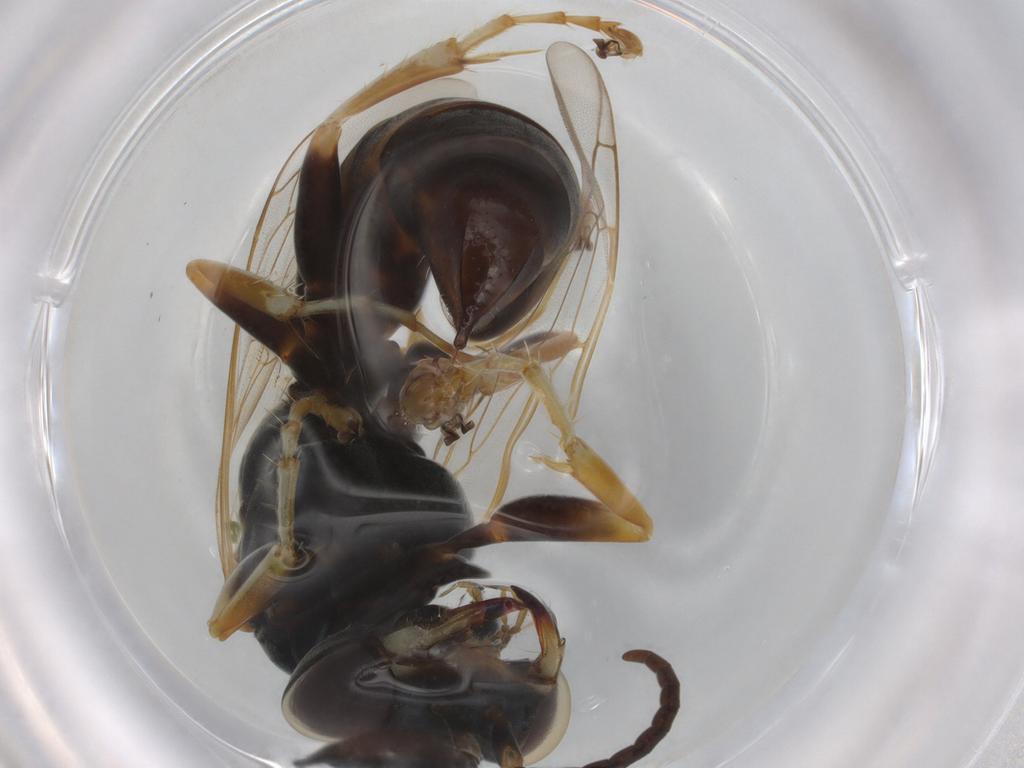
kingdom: Animalia
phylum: Arthropoda
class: Insecta
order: Hymenoptera
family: Crabronidae
